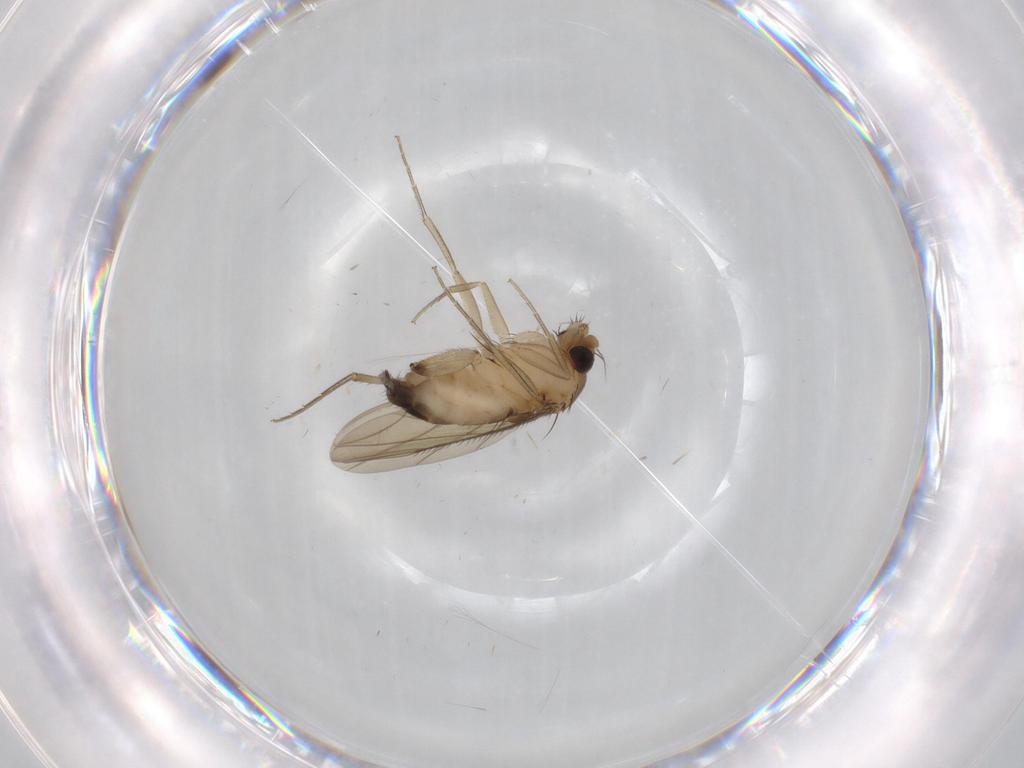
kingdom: Animalia
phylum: Arthropoda
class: Insecta
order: Diptera
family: Phoridae
